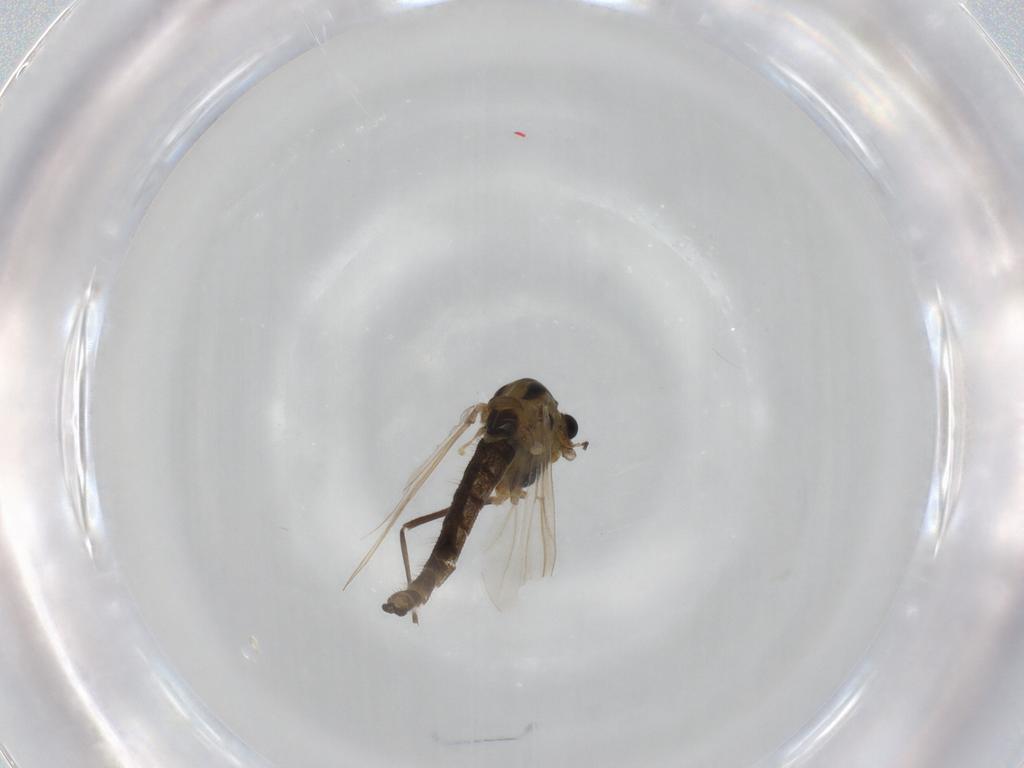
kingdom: Animalia
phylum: Arthropoda
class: Insecta
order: Diptera
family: Chironomidae
